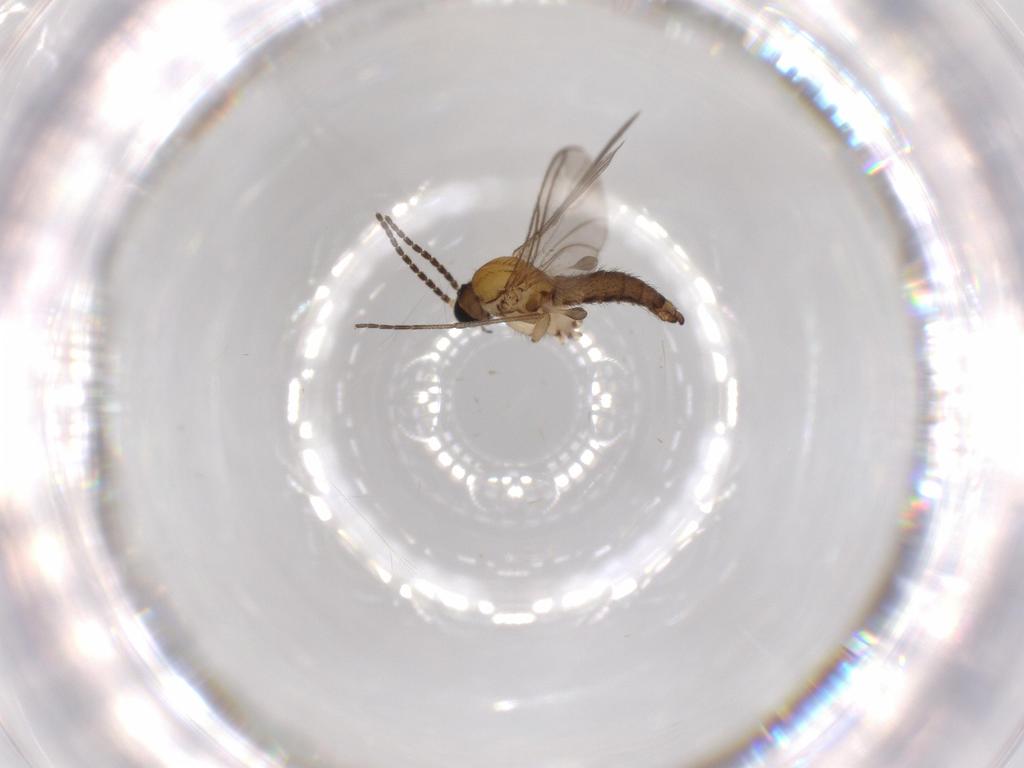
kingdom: Animalia
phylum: Arthropoda
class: Insecta
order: Diptera
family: Sciaridae
